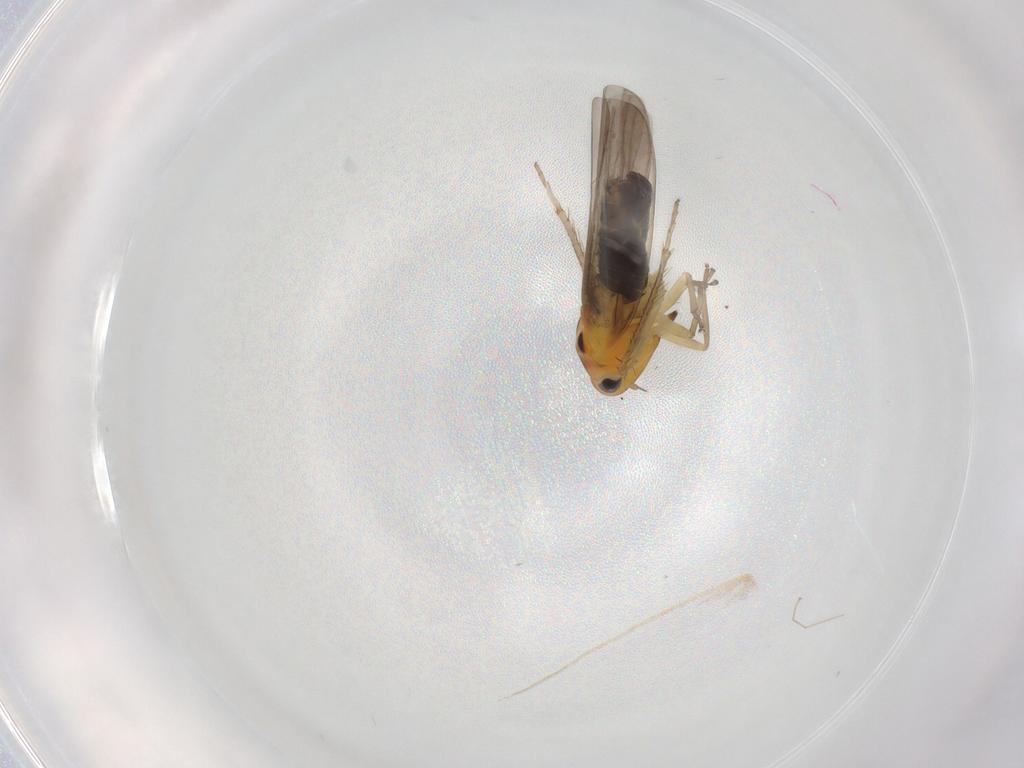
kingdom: Animalia
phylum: Arthropoda
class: Insecta
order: Hemiptera
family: Cicadellidae
